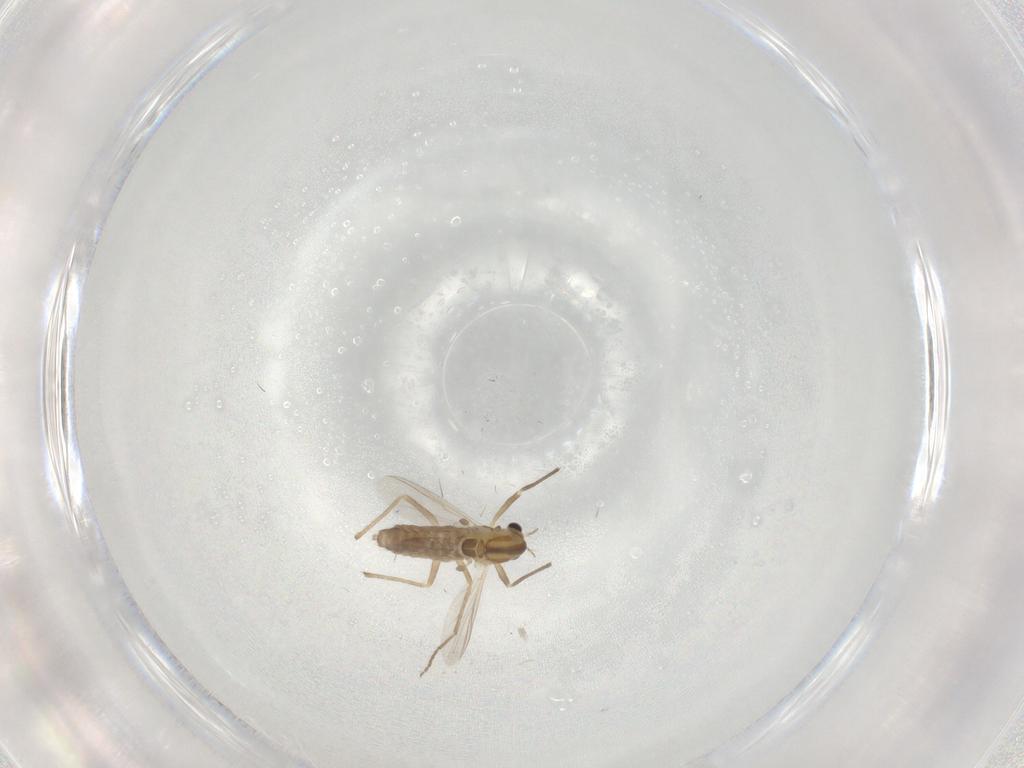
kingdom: Animalia
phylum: Arthropoda
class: Insecta
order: Diptera
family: Chironomidae
